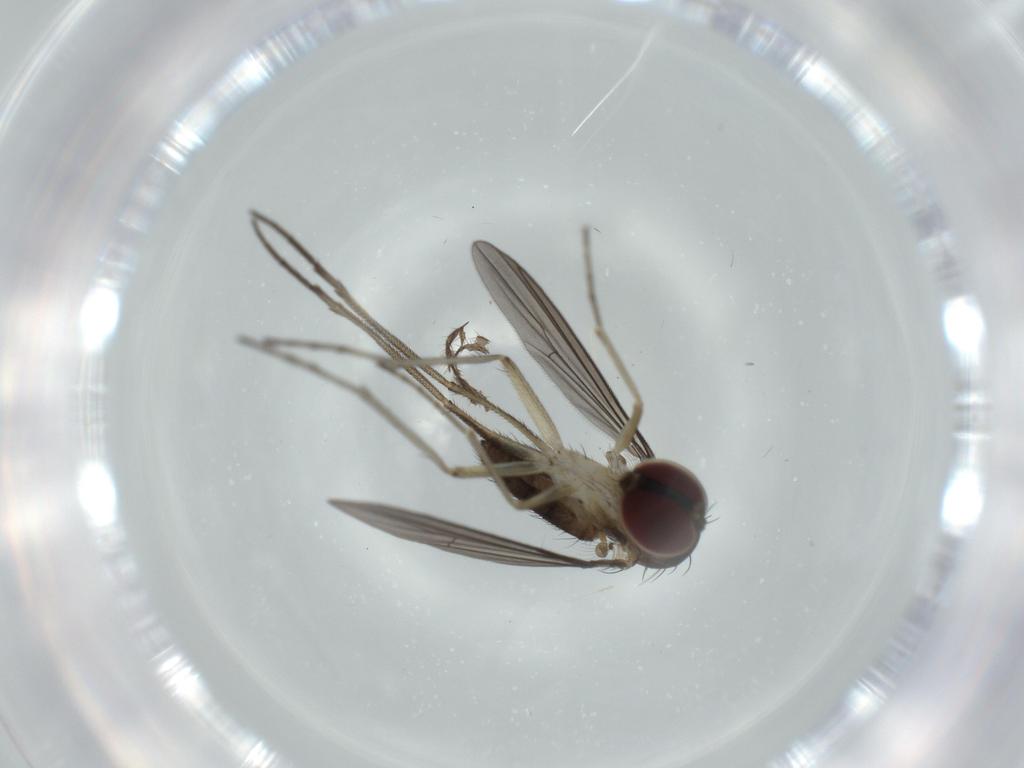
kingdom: Animalia
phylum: Arthropoda
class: Insecta
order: Diptera
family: Dolichopodidae
